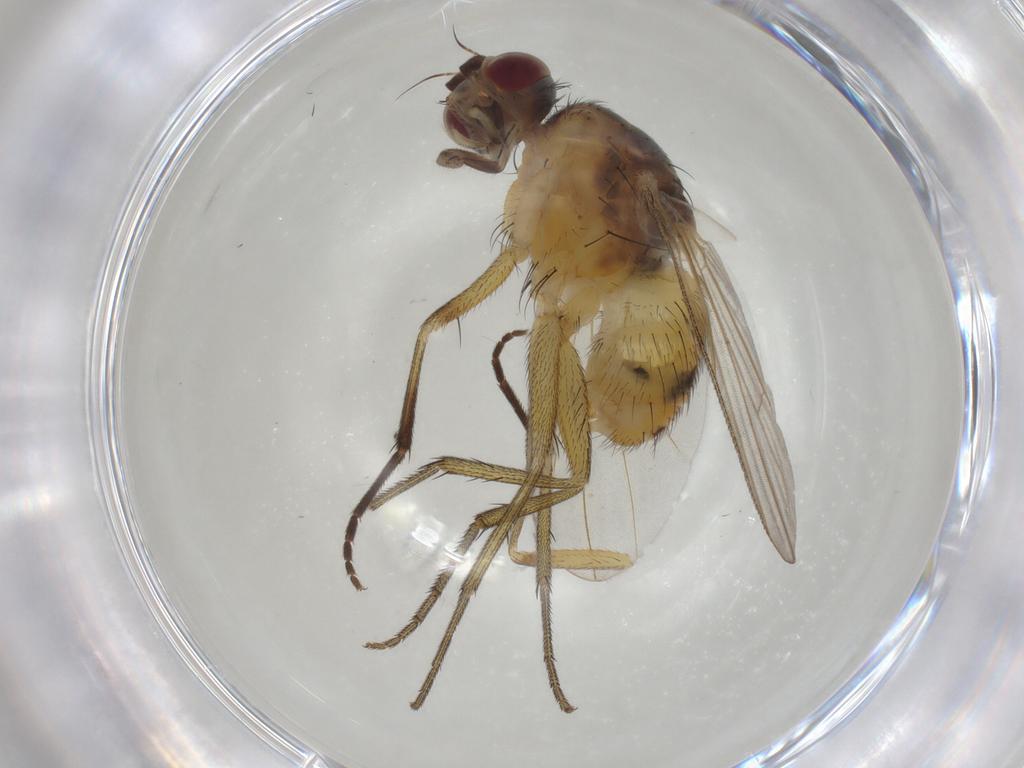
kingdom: Animalia
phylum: Arthropoda
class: Insecta
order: Diptera
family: Muscidae
